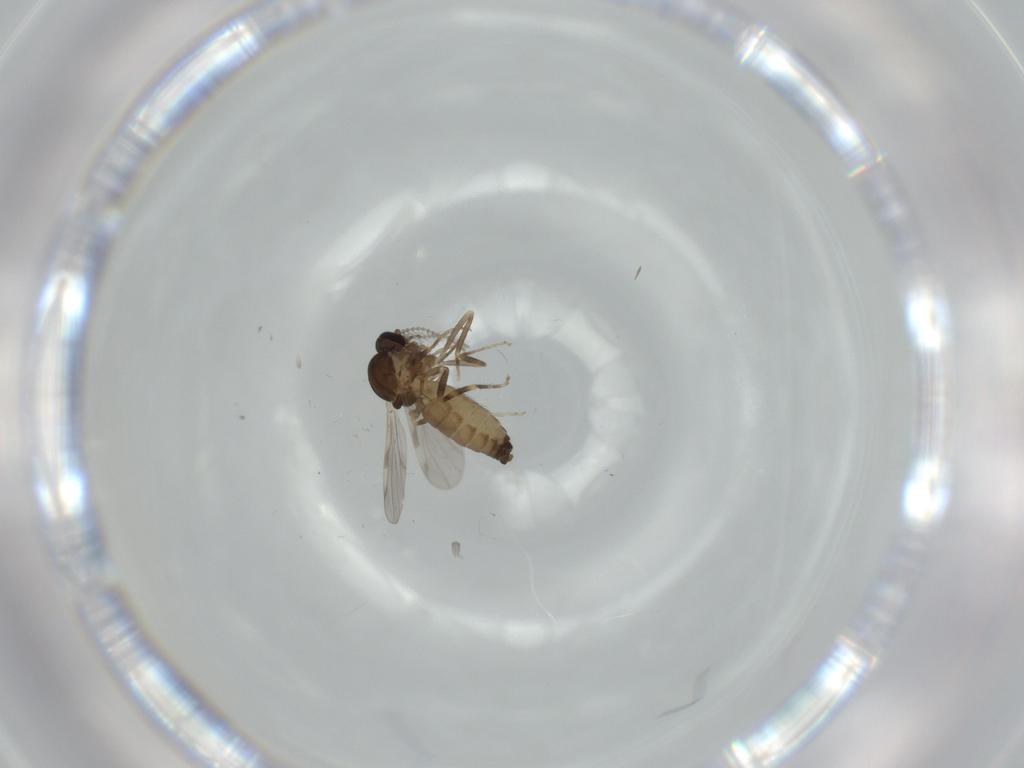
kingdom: Animalia
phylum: Arthropoda
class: Insecta
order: Diptera
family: Ceratopogonidae
